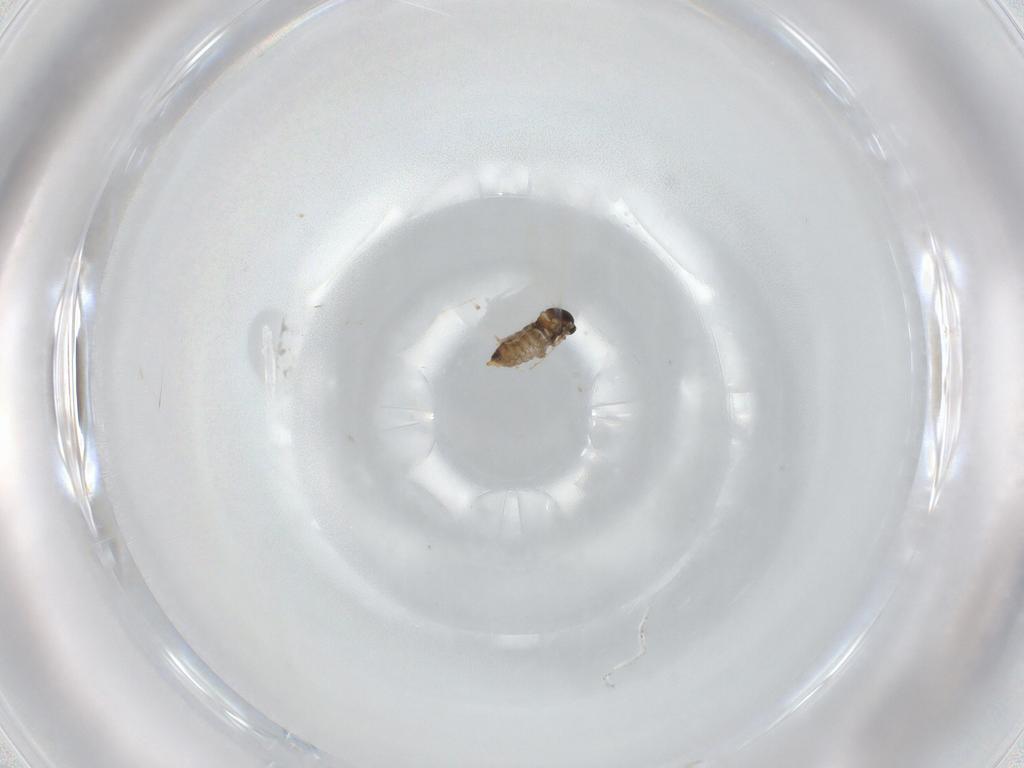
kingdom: Animalia
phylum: Arthropoda
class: Insecta
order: Diptera
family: Cecidomyiidae
